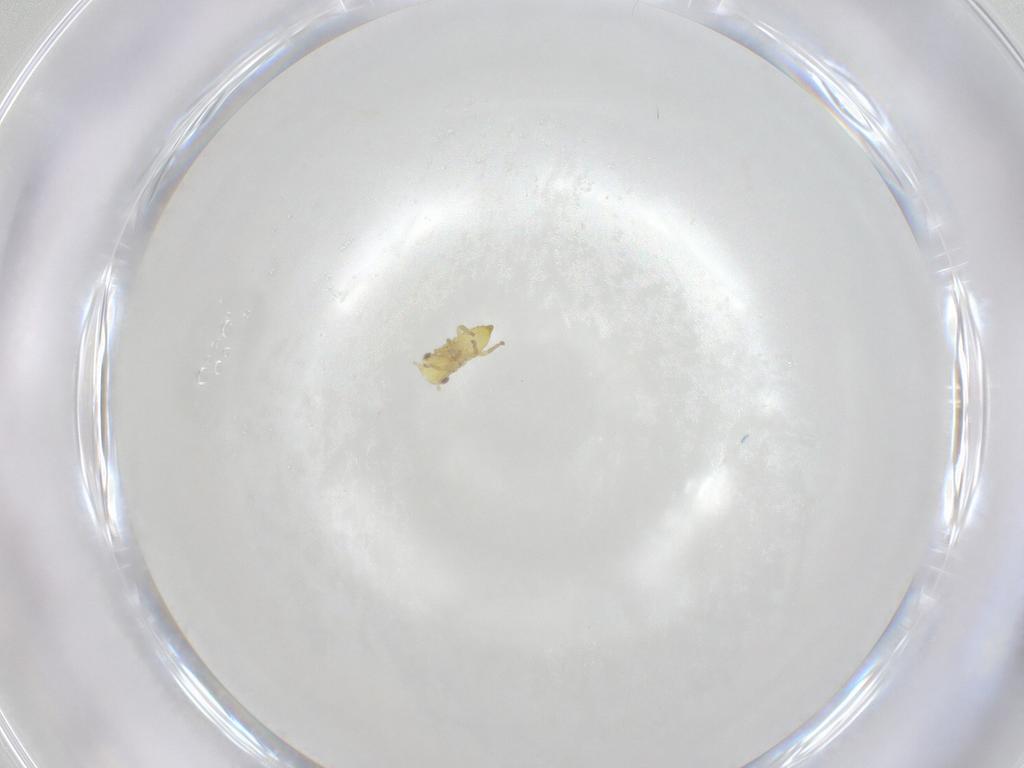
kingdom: Animalia
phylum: Arthropoda
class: Insecta
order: Hemiptera
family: Cicadellidae
